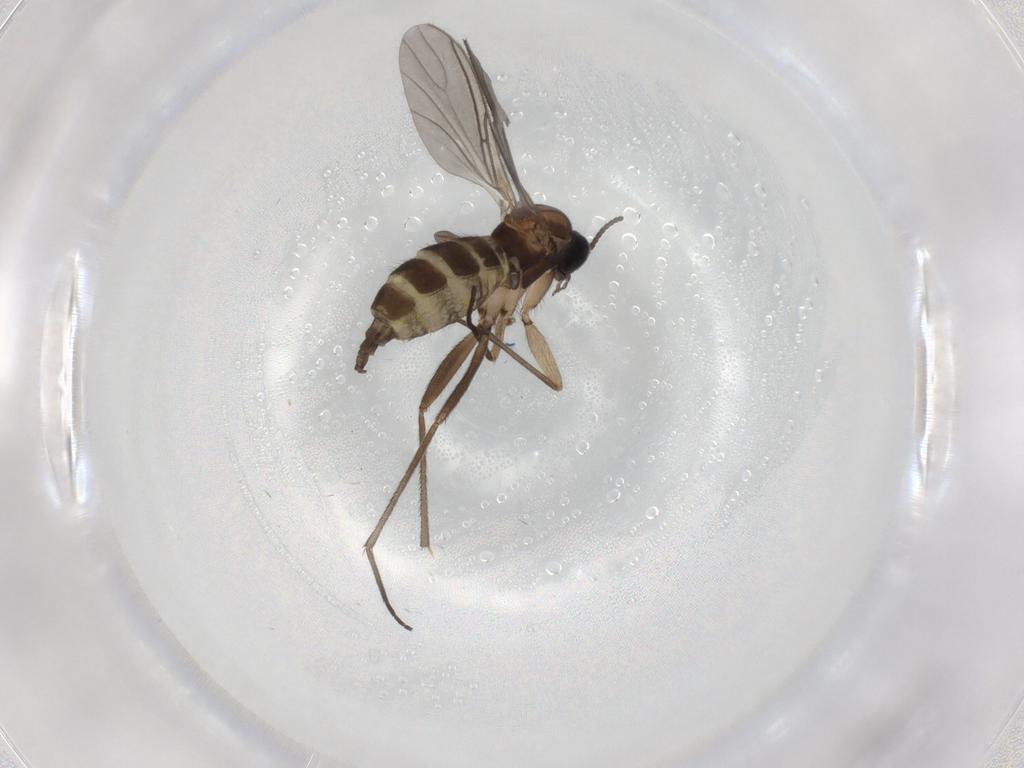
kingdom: Animalia
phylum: Arthropoda
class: Insecta
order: Diptera
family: Sciaridae
